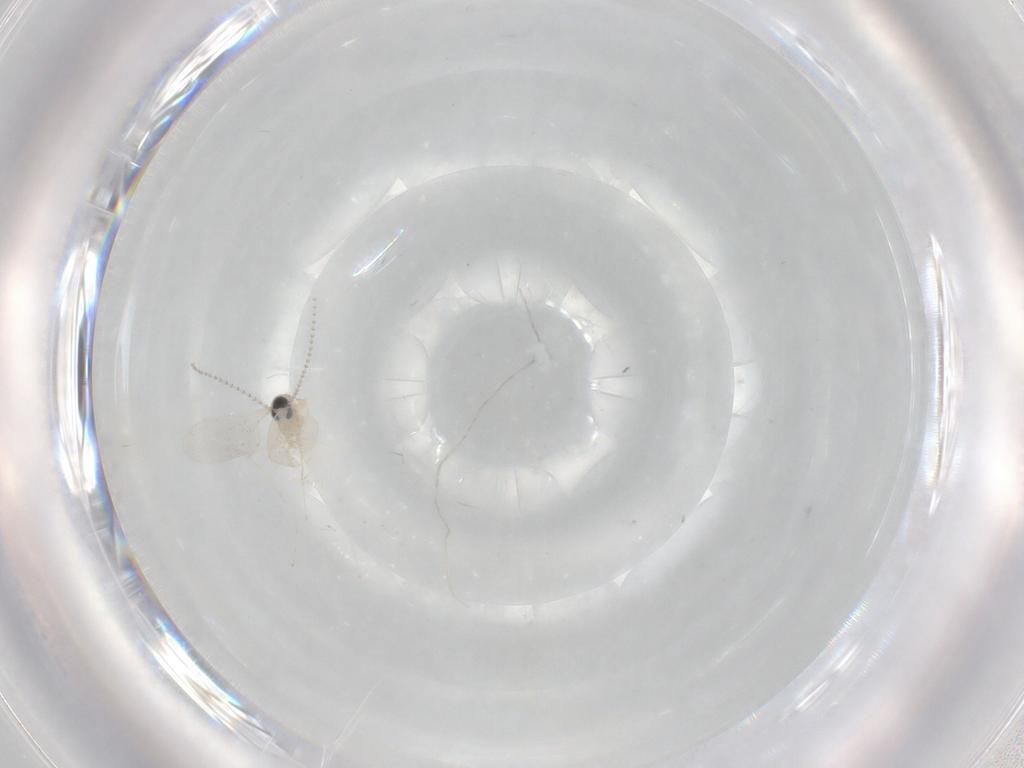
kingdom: Animalia
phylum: Arthropoda
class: Insecta
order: Diptera
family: Cecidomyiidae
